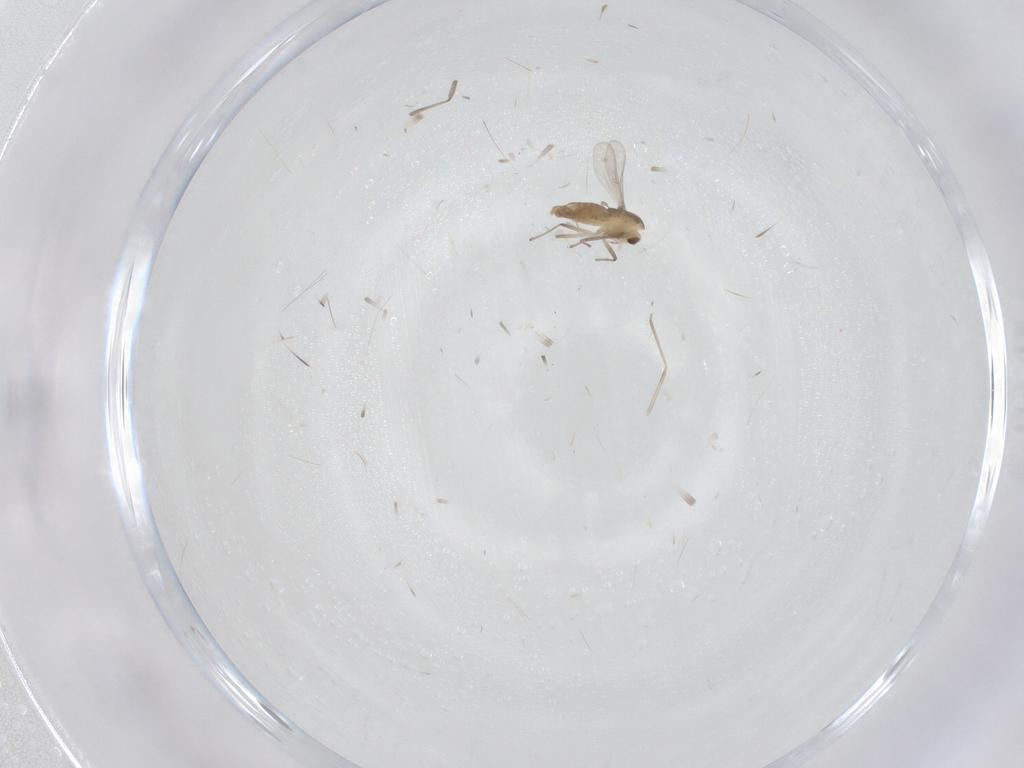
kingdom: Animalia
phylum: Arthropoda
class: Insecta
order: Diptera
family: Chironomidae
